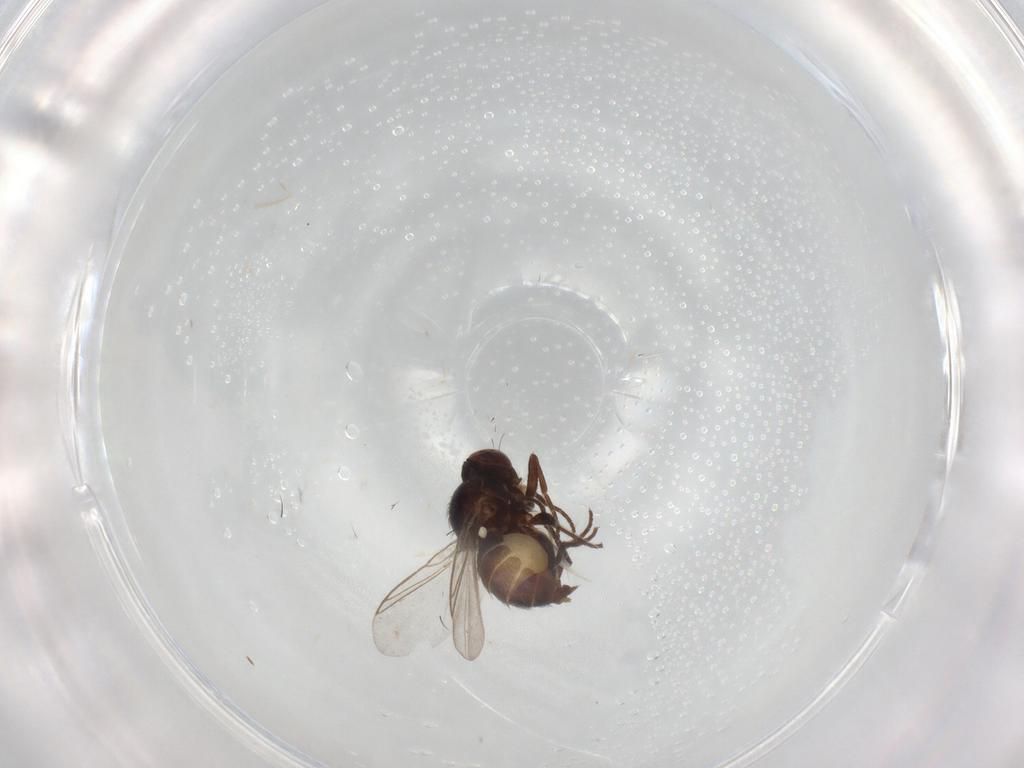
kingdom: Animalia
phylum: Arthropoda
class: Insecta
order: Diptera
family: Cecidomyiidae
